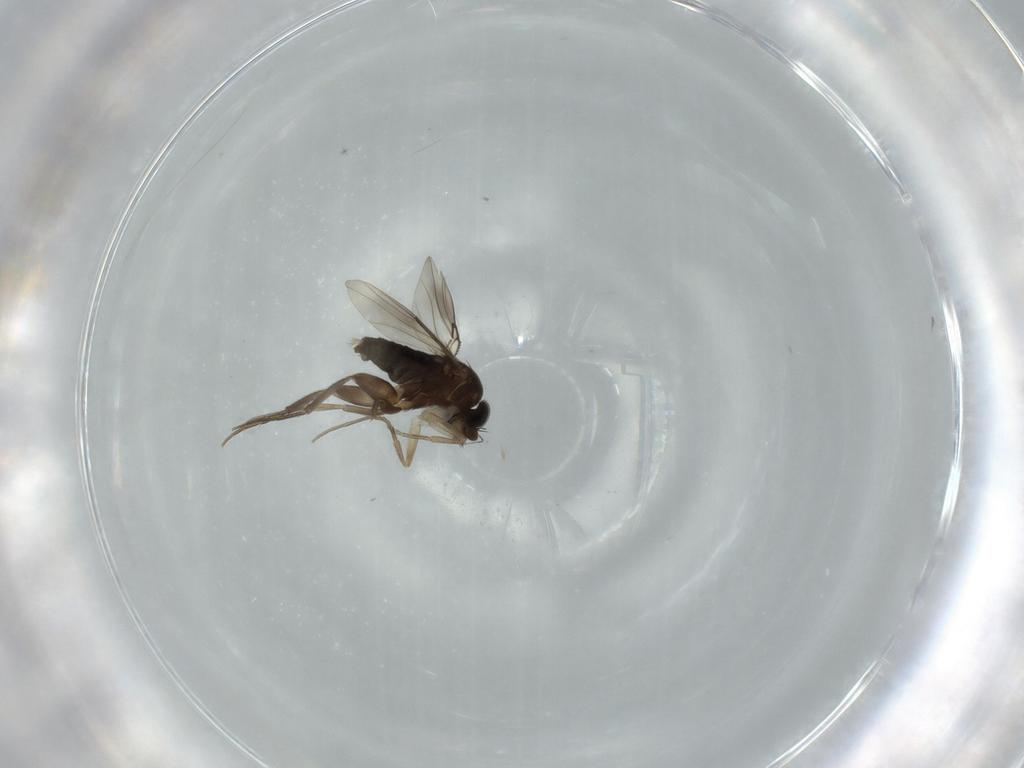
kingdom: Animalia
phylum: Arthropoda
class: Insecta
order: Diptera
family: Phoridae
